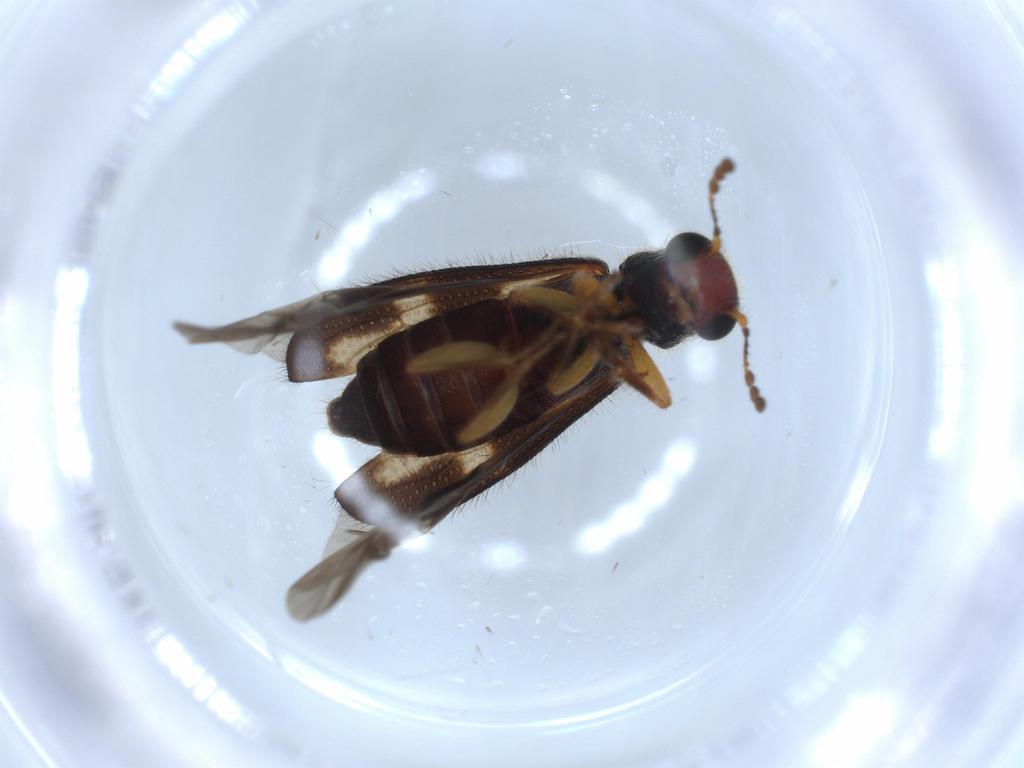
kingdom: Animalia
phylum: Arthropoda
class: Insecta
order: Coleoptera
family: Cleridae
